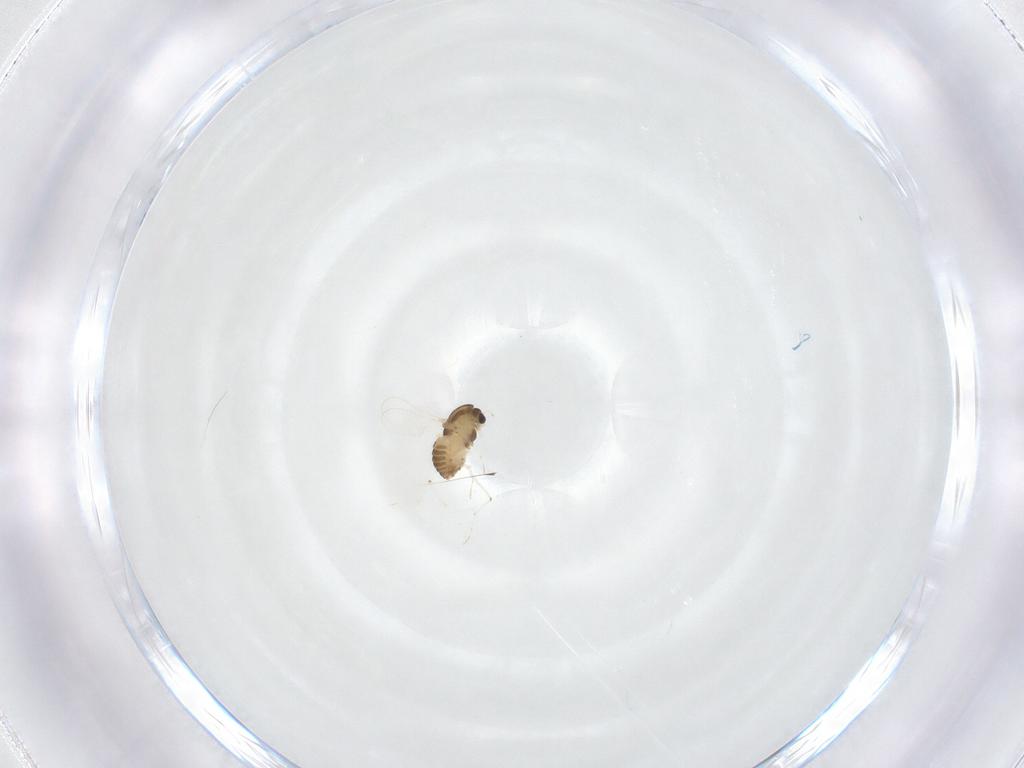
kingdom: Animalia
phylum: Arthropoda
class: Insecta
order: Diptera
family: Chironomidae
